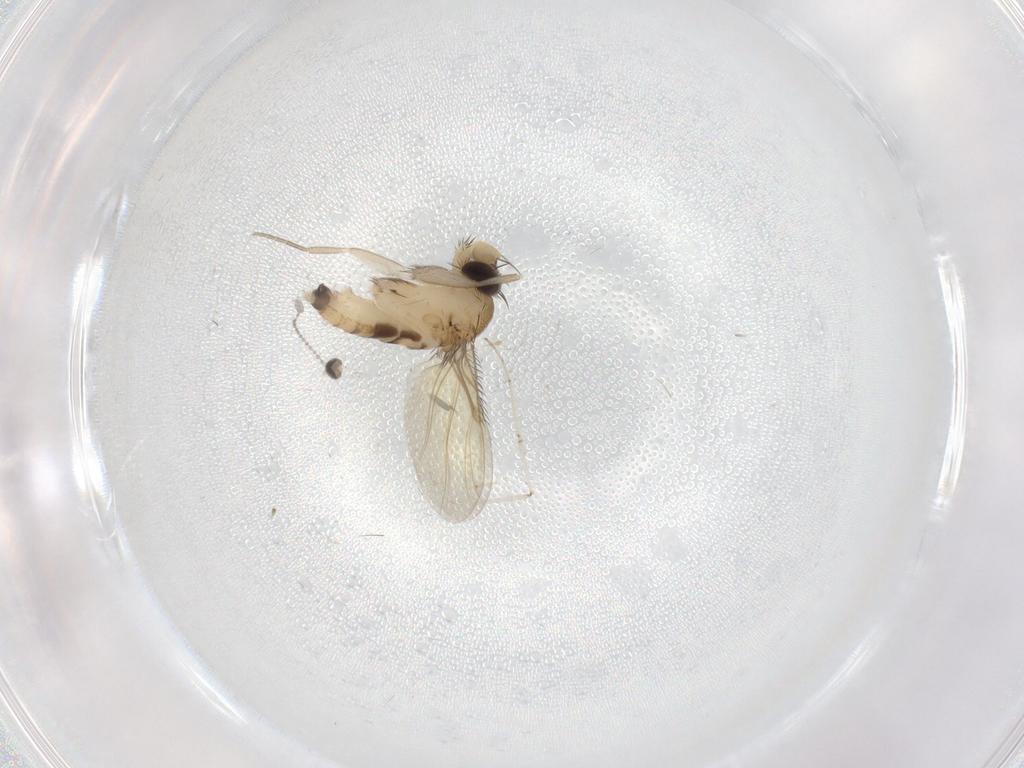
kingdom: Animalia
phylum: Arthropoda
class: Insecta
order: Diptera
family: Phoridae
